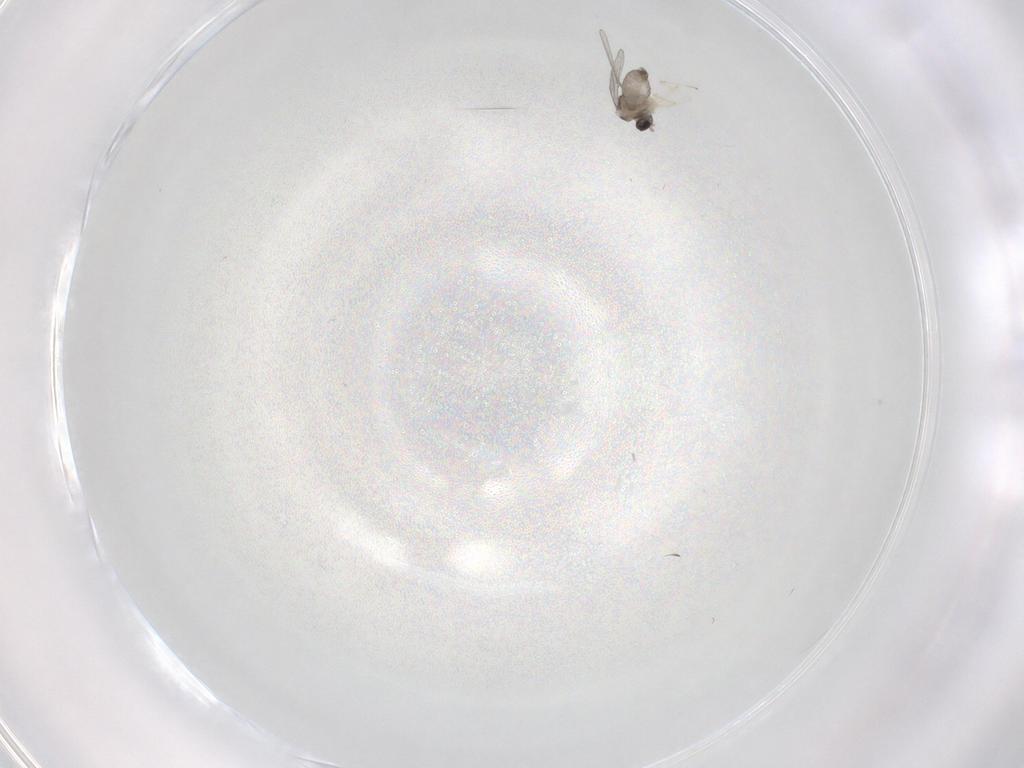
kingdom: Animalia
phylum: Arthropoda
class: Insecta
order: Diptera
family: Cecidomyiidae
